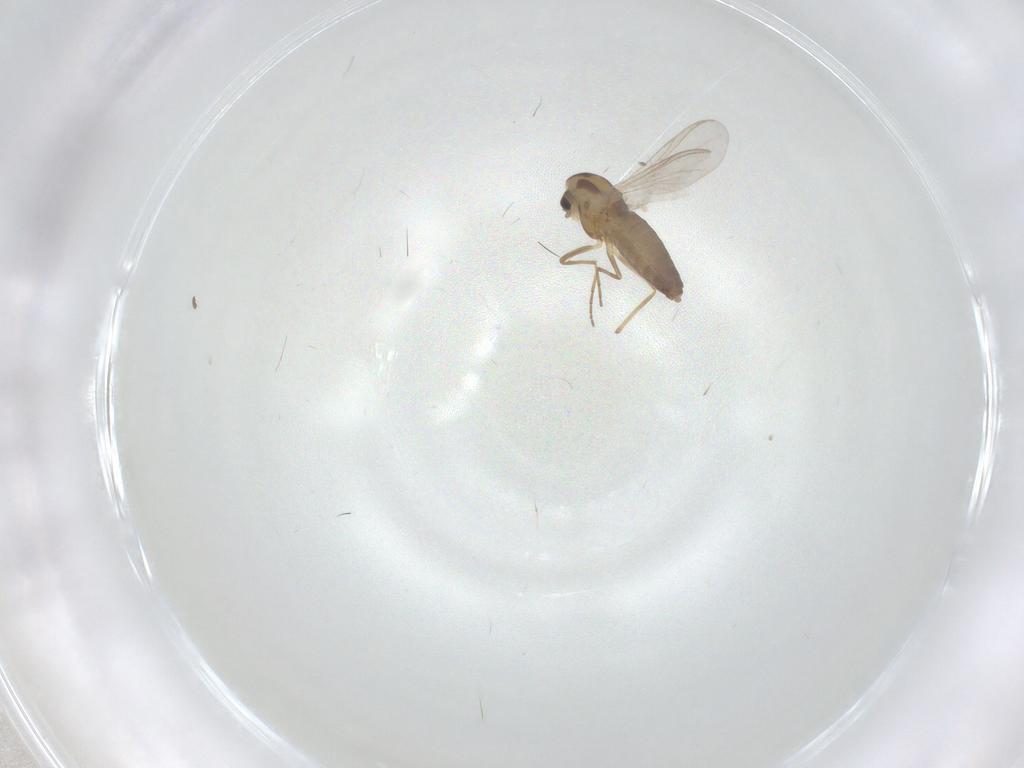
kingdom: Animalia
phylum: Arthropoda
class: Insecta
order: Diptera
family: Chironomidae
